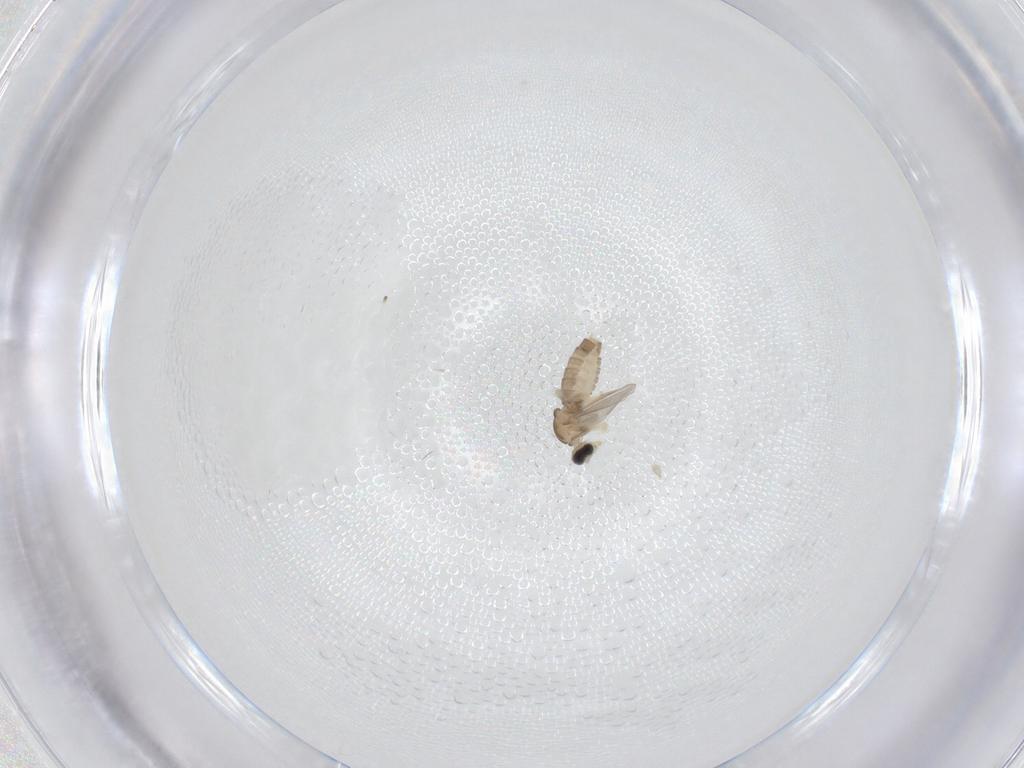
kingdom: Animalia
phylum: Arthropoda
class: Insecta
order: Diptera
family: Cecidomyiidae
